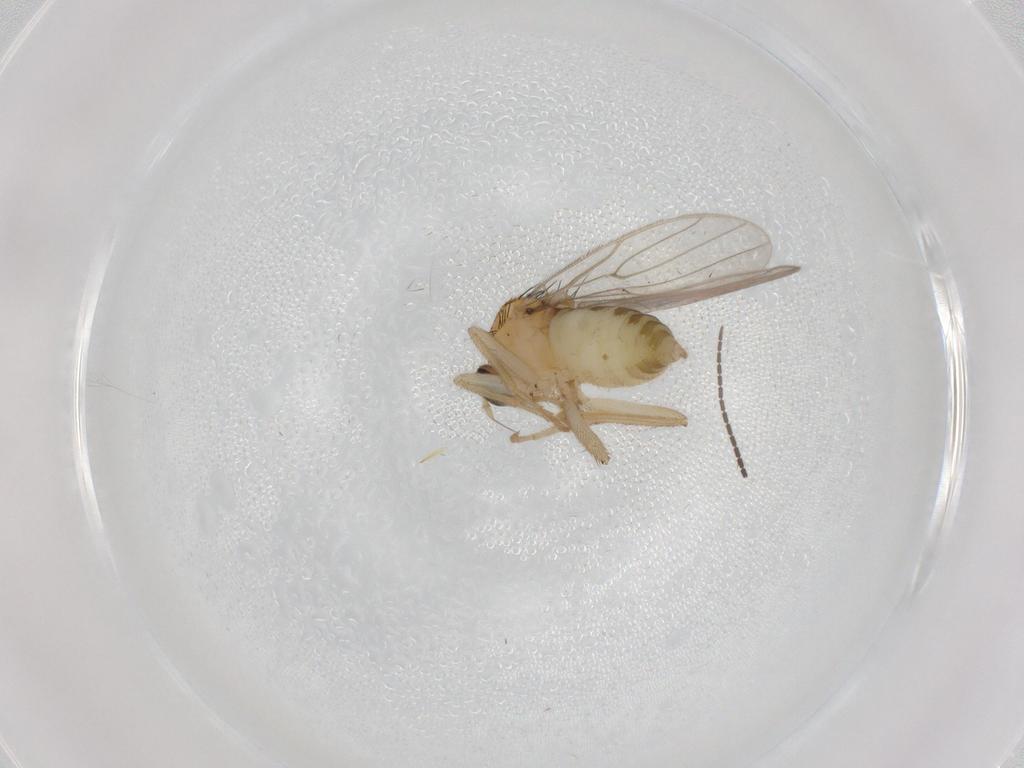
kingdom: Animalia
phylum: Arthropoda
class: Insecta
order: Diptera
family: Hybotidae
